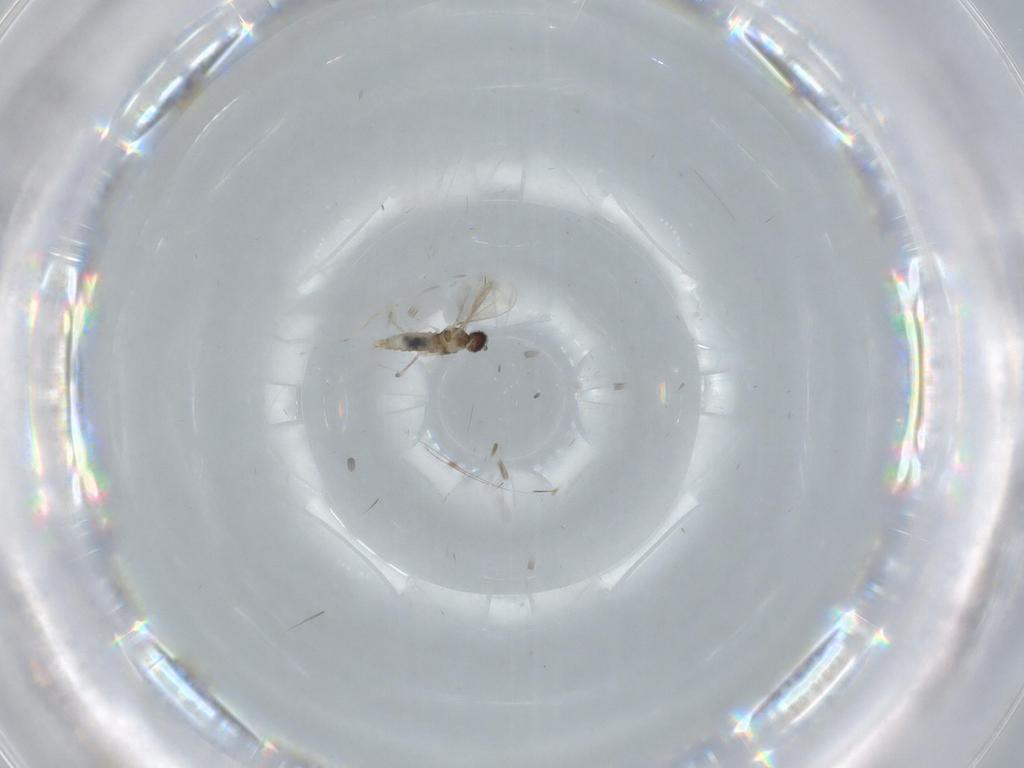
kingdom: Animalia
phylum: Arthropoda
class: Insecta
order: Diptera
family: Cecidomyiidae
